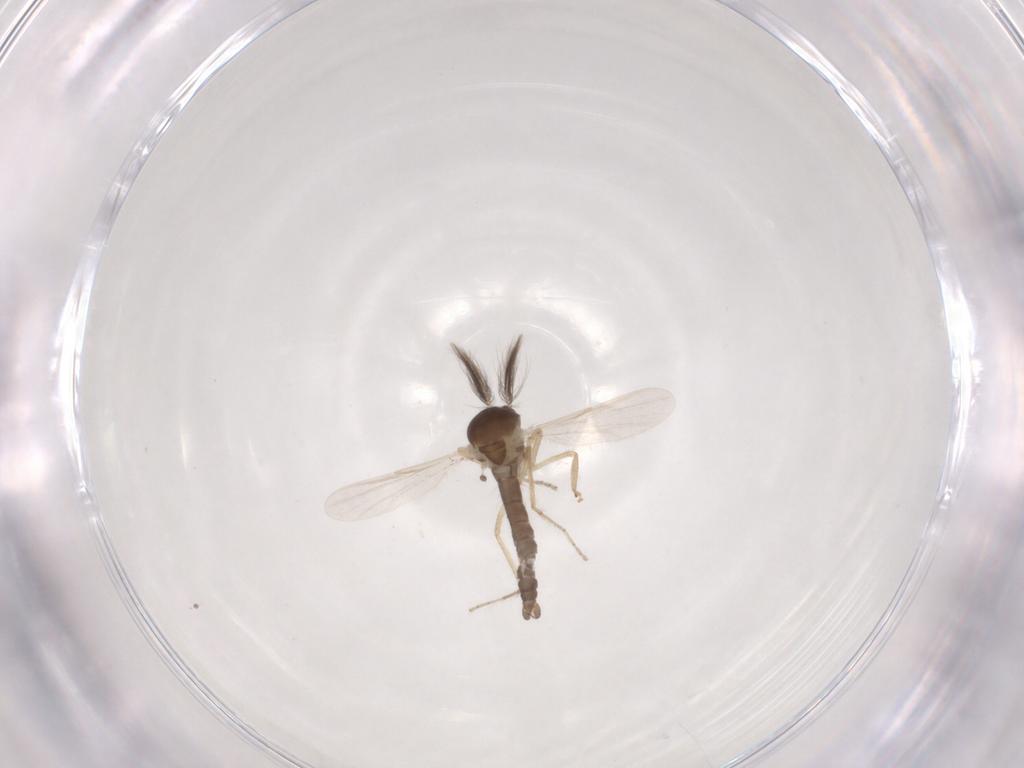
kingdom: Animalia
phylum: Arthropoda
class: Insecta
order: Diptera
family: Ceratopogonidae
